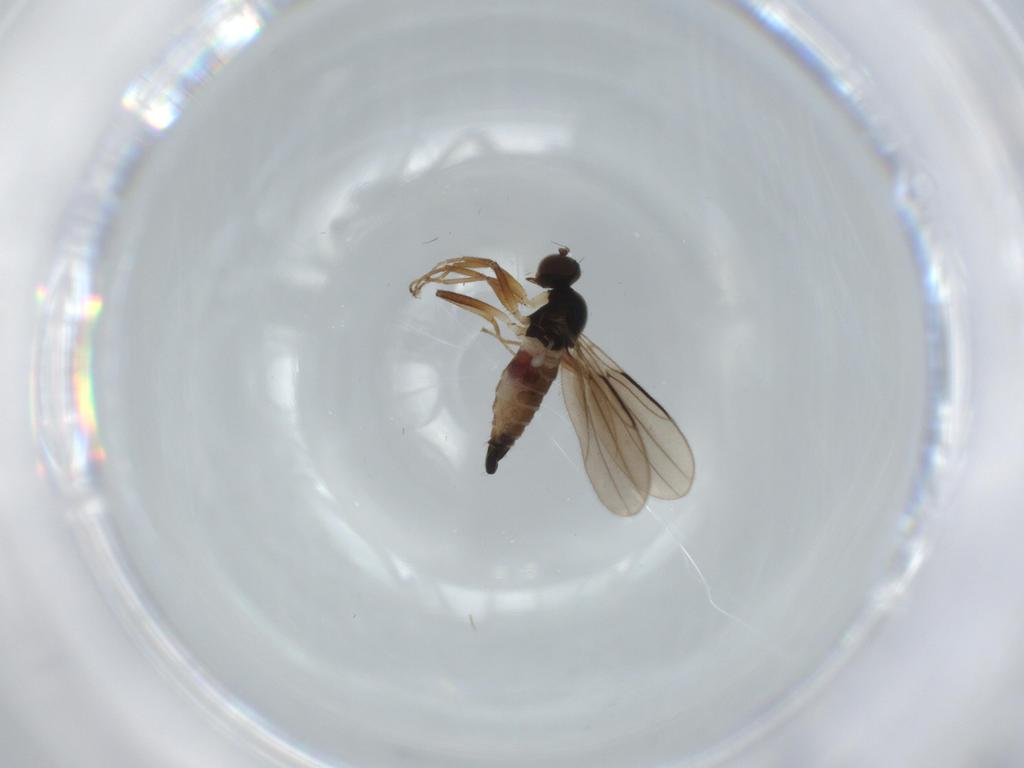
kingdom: Animalia
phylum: Arthropoda
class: Insecta
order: Diptera
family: Hybotidae
